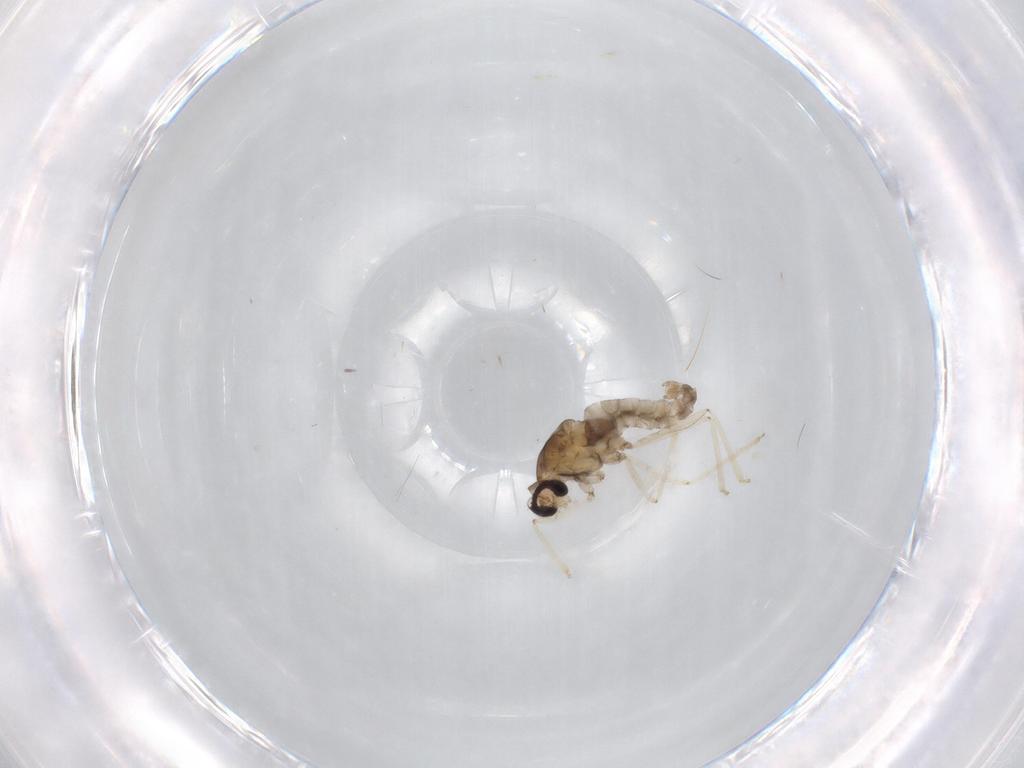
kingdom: Animalia
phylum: Arthropoda
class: Insecta
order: Diptera
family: Cecidomyiidae
